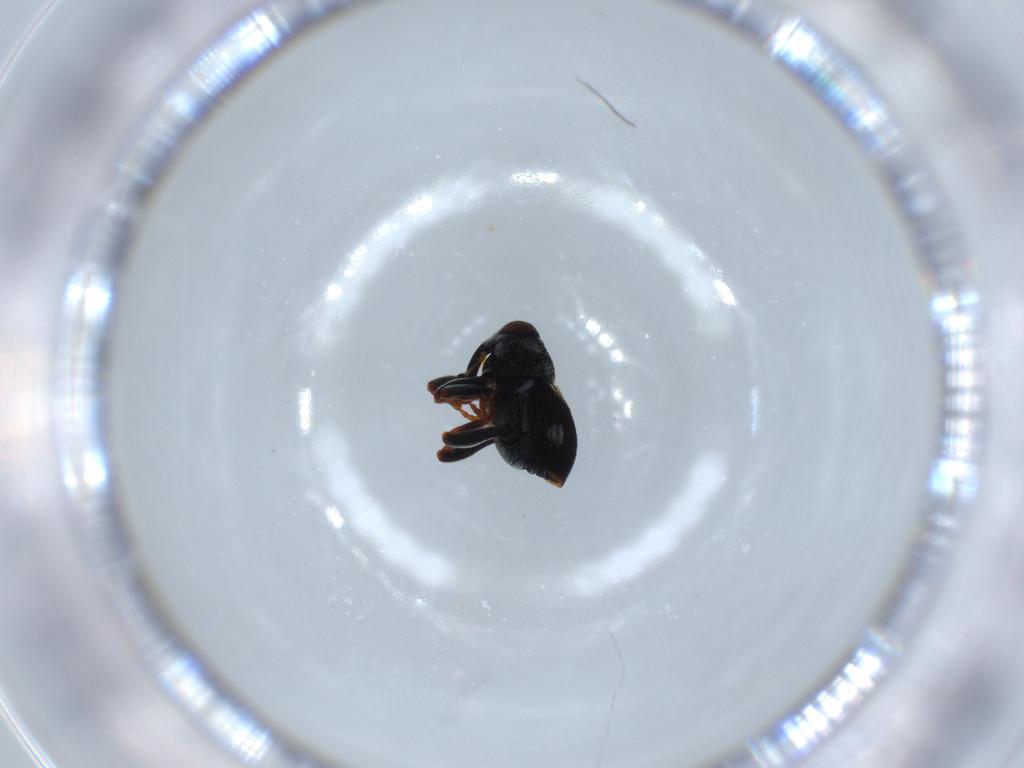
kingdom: Animalia
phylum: Arthropoda
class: Insecta
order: Coleoptera
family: Curculionidae
